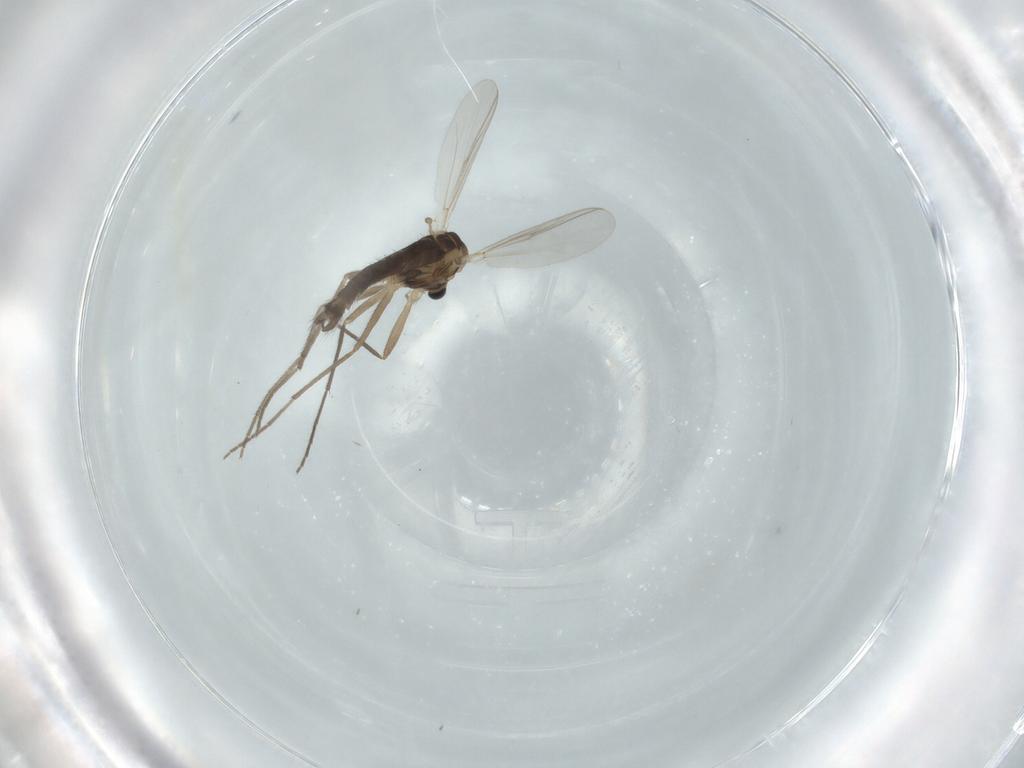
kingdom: Animalia
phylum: Arthropoda
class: Insecta
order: Diptera
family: Chironomidae
